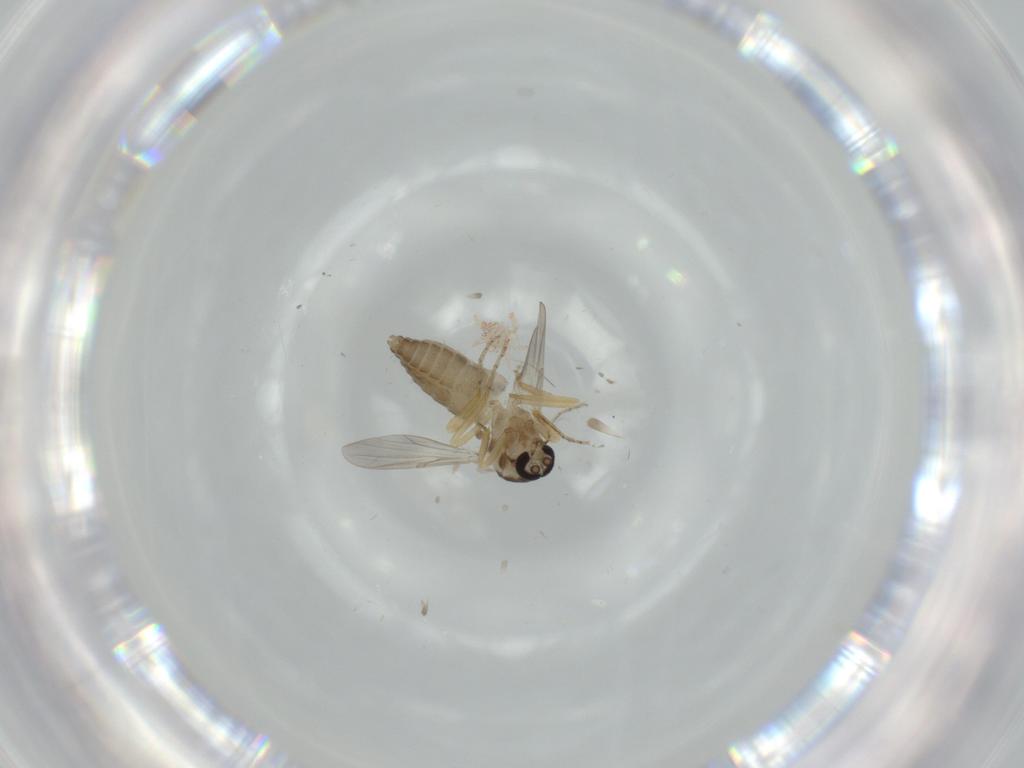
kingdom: Animalia
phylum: Arthropoda
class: Insecta
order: Diptera
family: Ceratopogonidae
